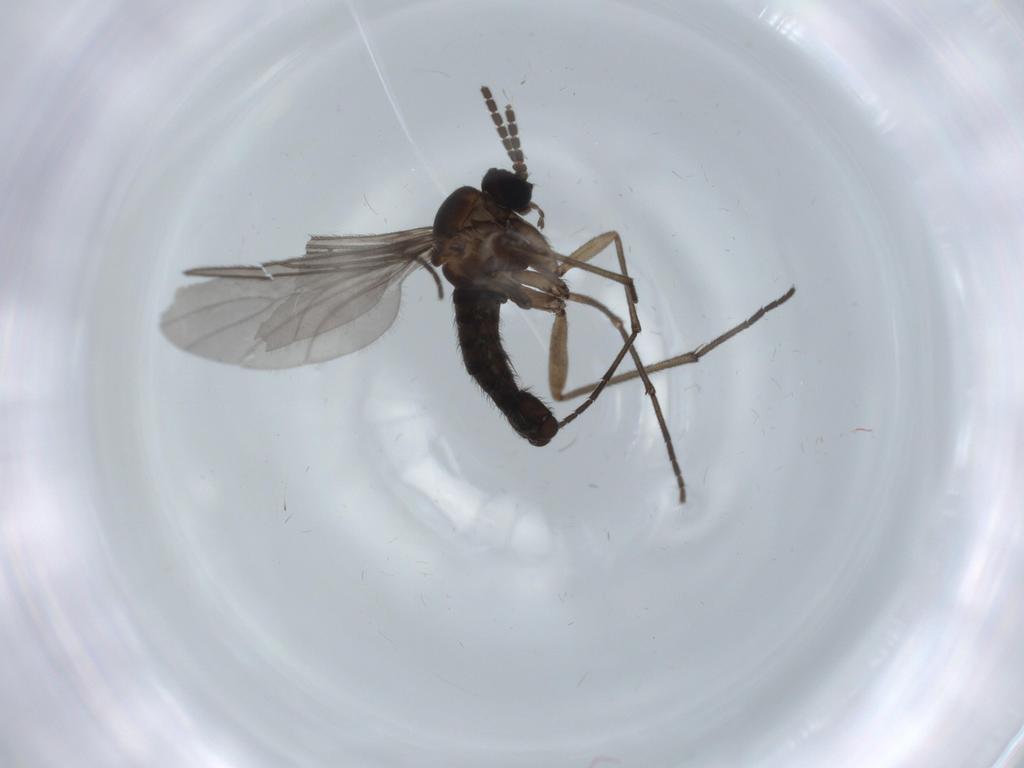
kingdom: Animalia
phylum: Arthropoda
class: Insecta
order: Diptera
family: Sciaridae
